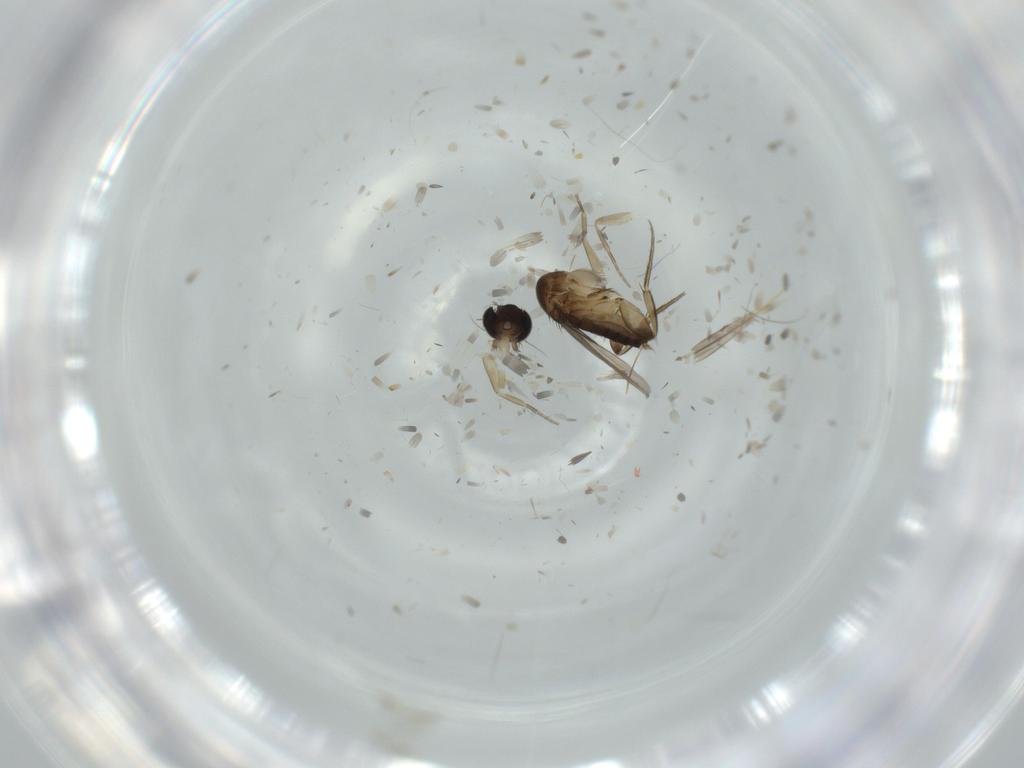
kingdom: Animalia
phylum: Arthropoda
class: Insecta
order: Diptera
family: Phoridae
